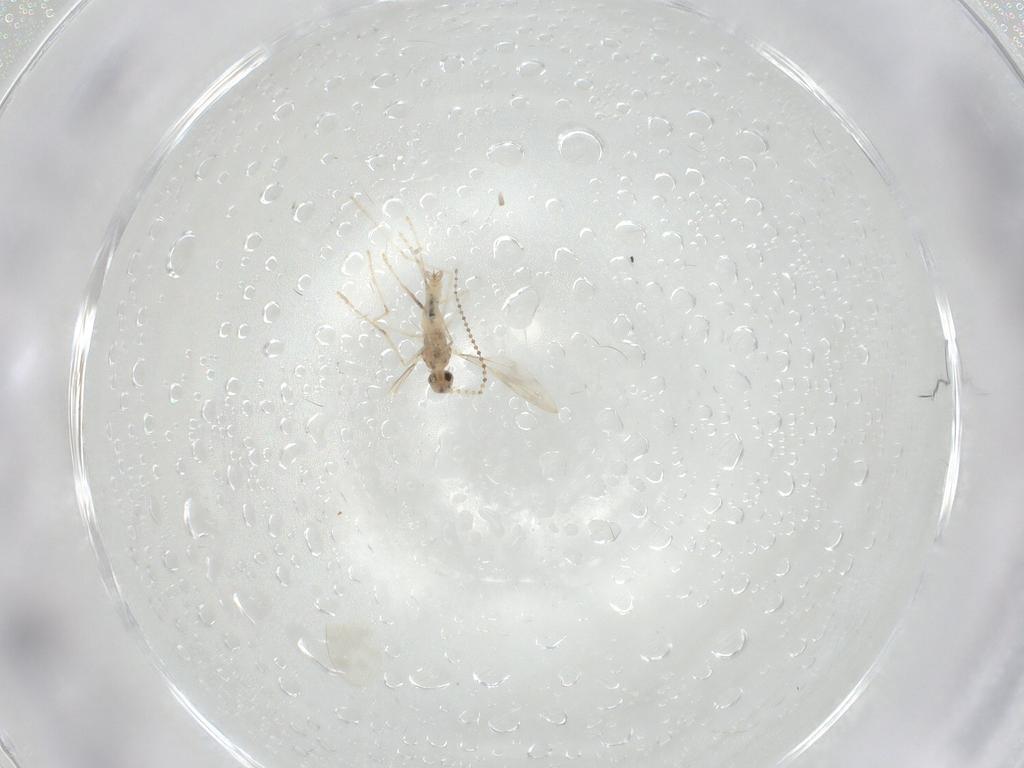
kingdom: Animalia
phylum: Arthropoda
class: Insecta
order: Diptera
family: Cecidomyiidae
